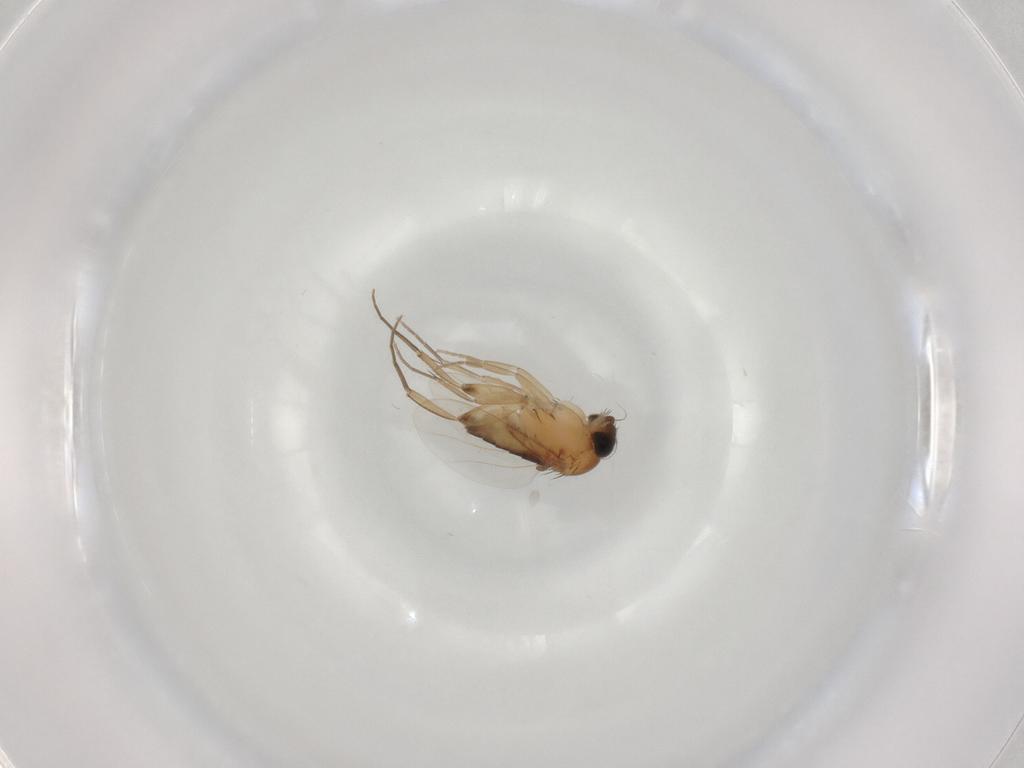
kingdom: Animalia
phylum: Arthropoda
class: Insecta
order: Diptera
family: Phoridae
